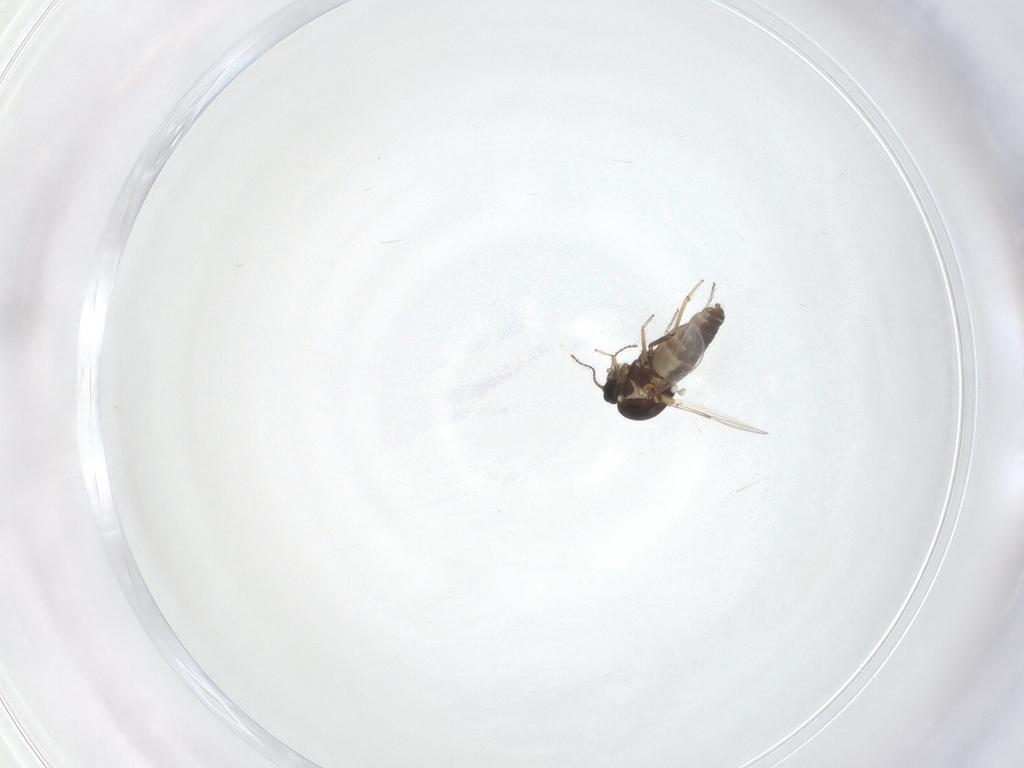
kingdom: Animalia
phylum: Arthropoda
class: Insecta
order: Diptera
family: Ceratopogonidae
